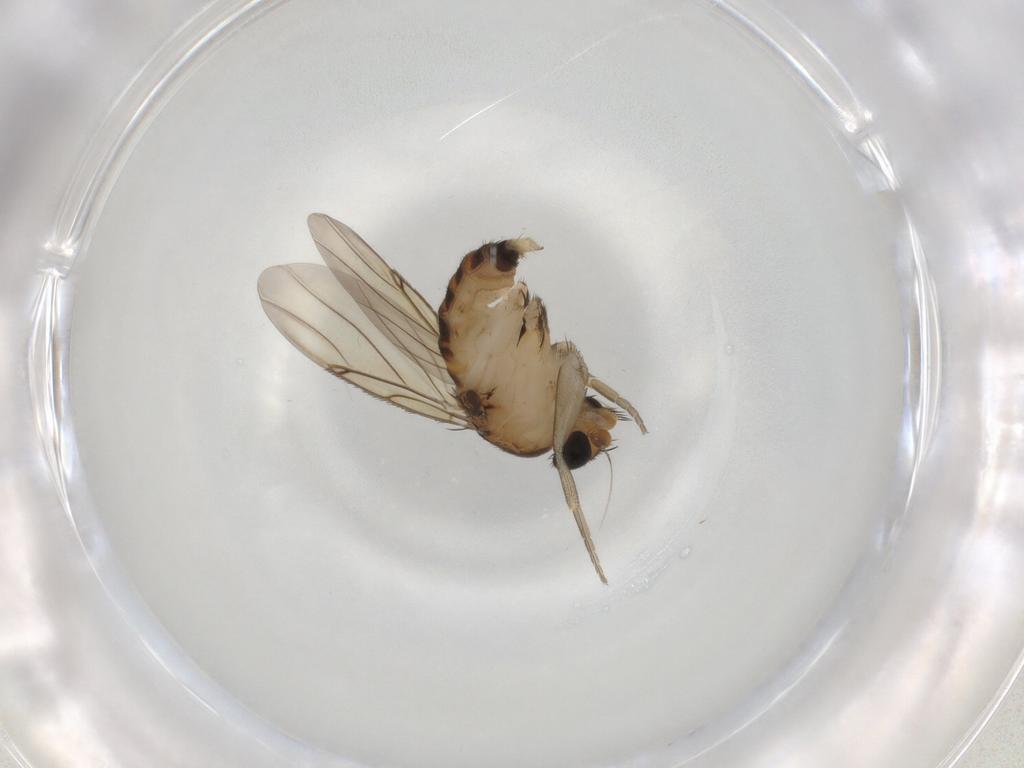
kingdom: Animalia
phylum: Arthropoda
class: Insecta
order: Diptera
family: Phoridae
